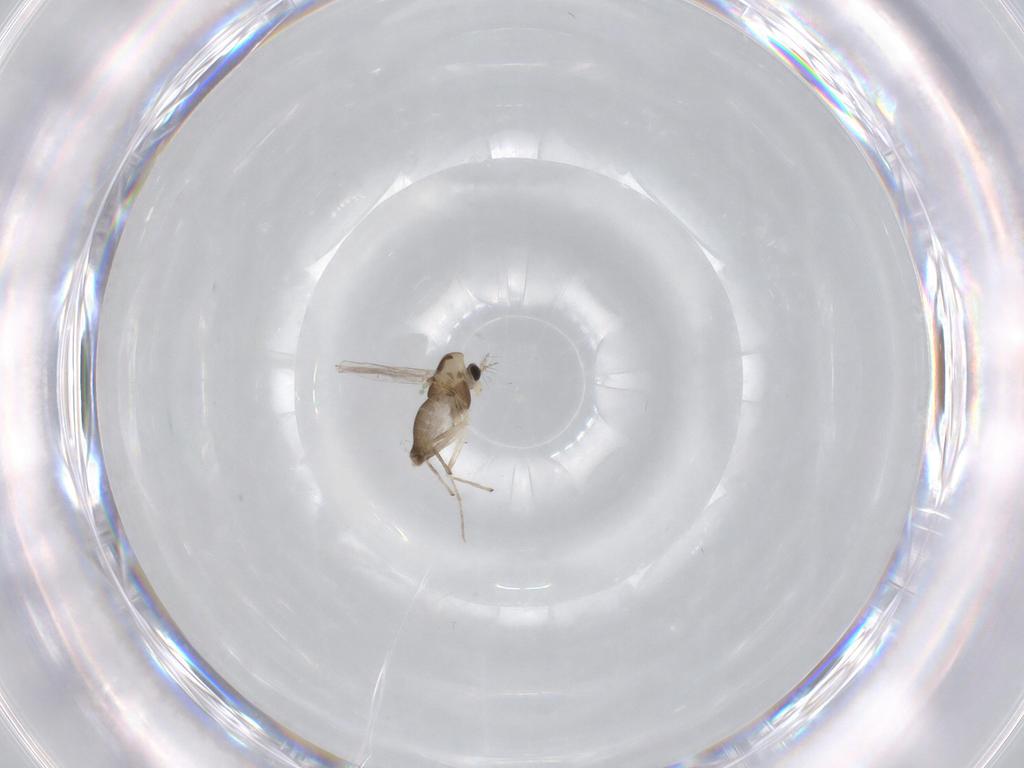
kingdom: Animalia
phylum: Arthropoda
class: Insecta
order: Diptera
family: Chironomidae
